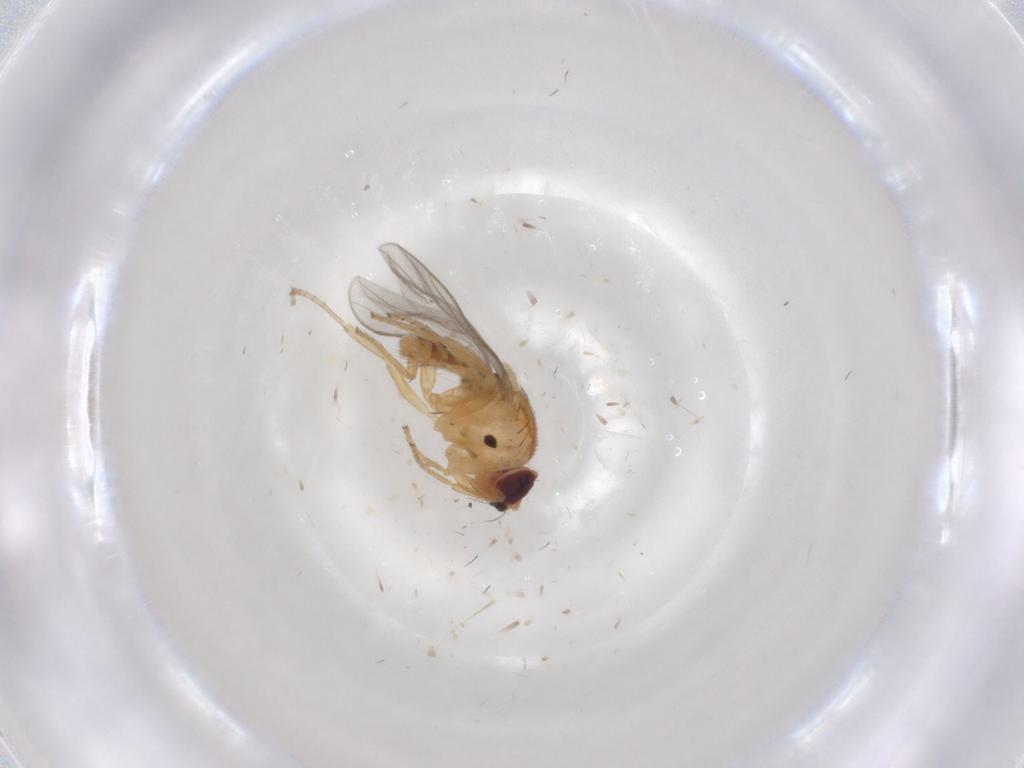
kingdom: Animalia
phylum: Arthropoda
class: Insecta
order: Diptera
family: Chloropidae
